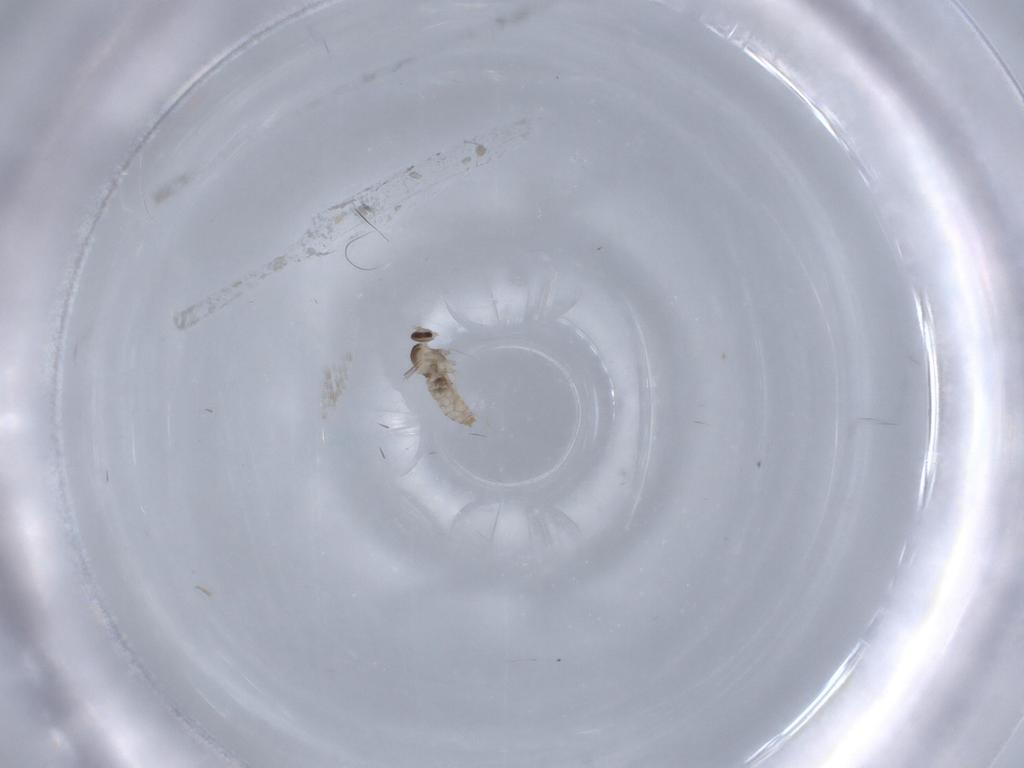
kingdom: Animalia
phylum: Arthropoda
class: Insecta
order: Diptera
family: Cecidomyiidae
